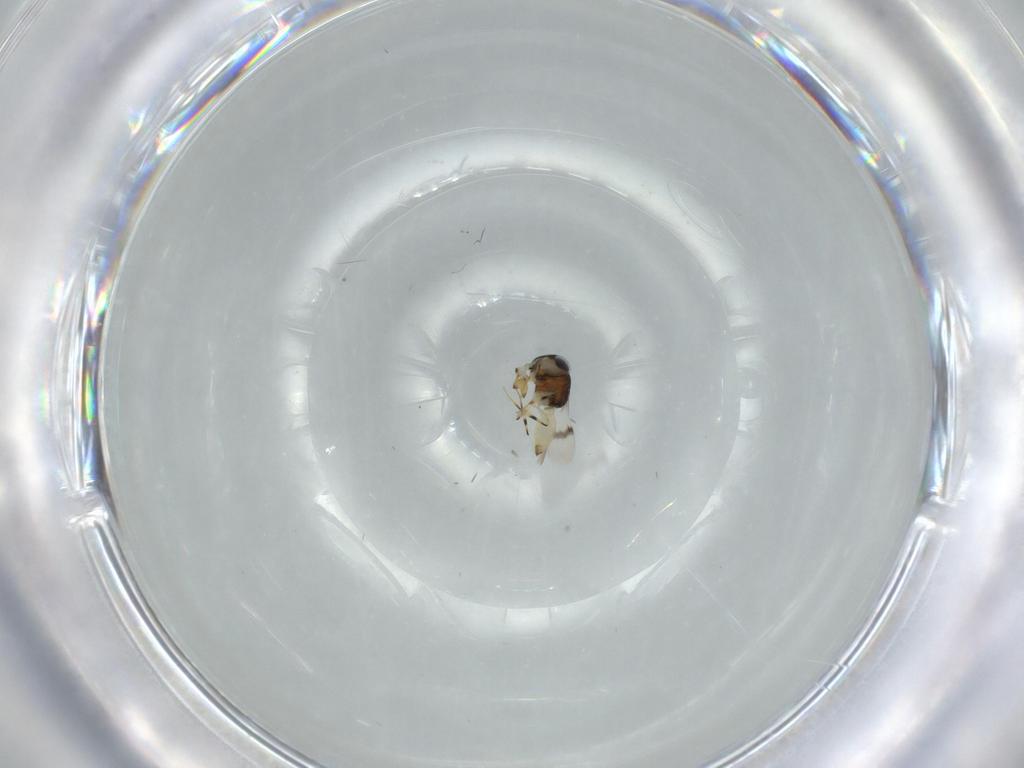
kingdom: Animalia
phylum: Arthropoda
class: Insecta
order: Hymenoptera
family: Scelionidae
